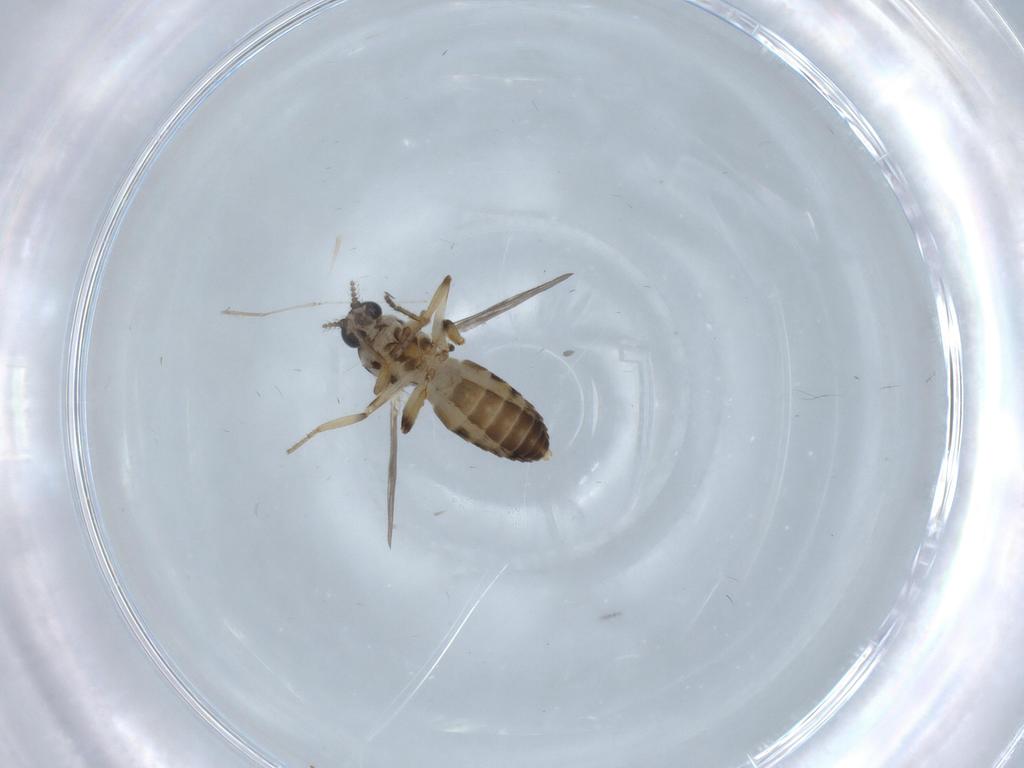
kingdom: Animalia
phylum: Arthropoda
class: Insecta
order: Diptera
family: Ceratopogonidae
